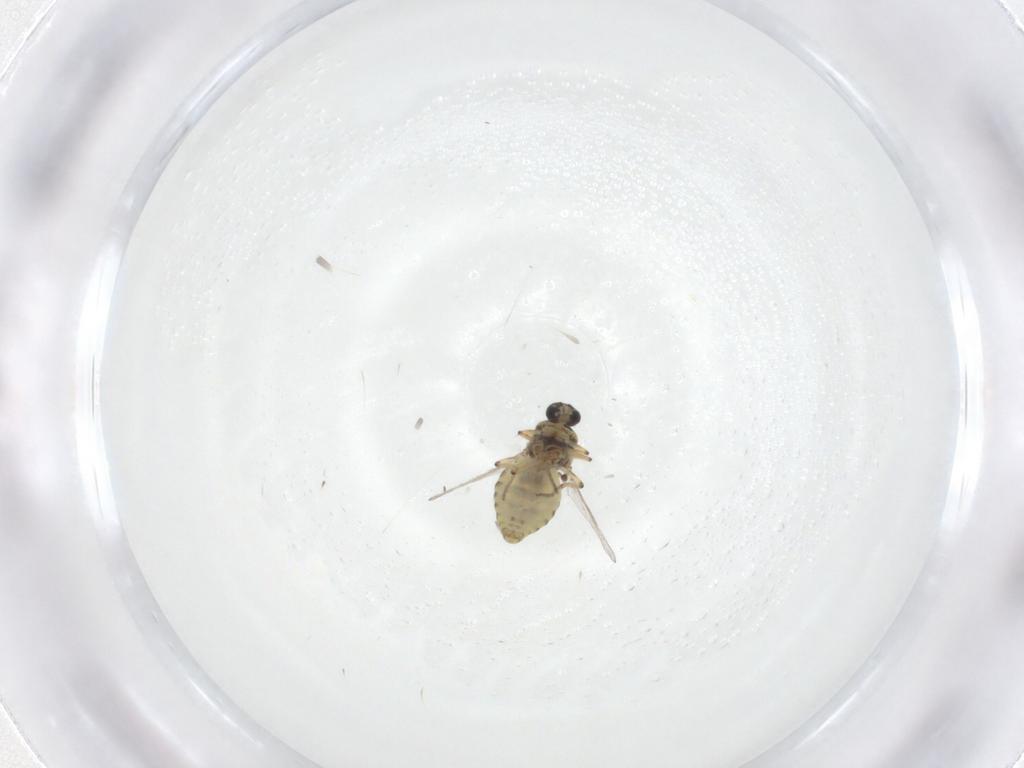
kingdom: Animalia
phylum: Arthropoda
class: Insecta
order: Diptera
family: Ceratopogonidae
